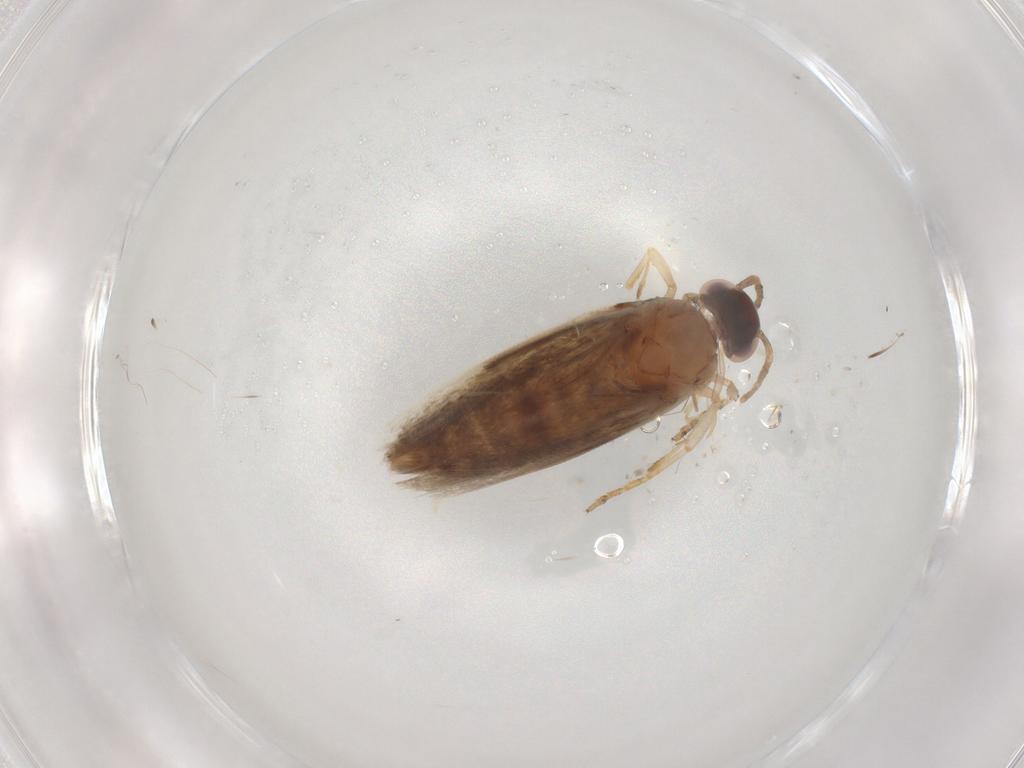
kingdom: Animalia
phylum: Arthropoda
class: Insecta
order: Lepidoptera
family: Gelechiidae
